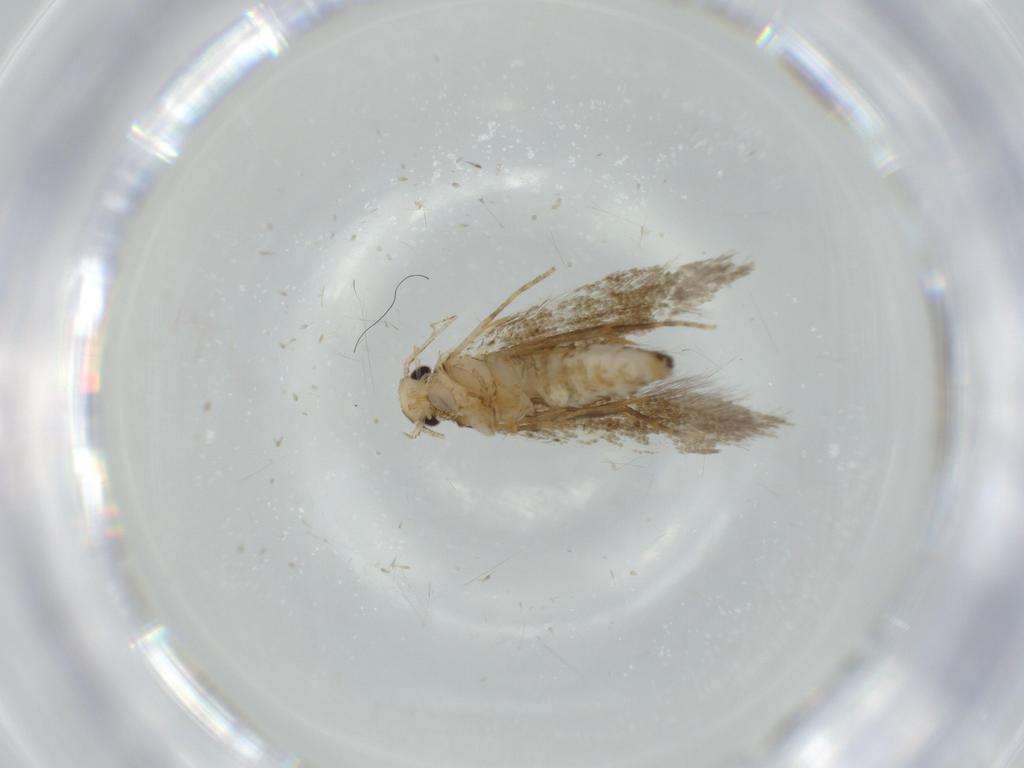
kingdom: Animalia
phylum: Arthropoda
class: Insecta
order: Lepidoptera
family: Tineidae
